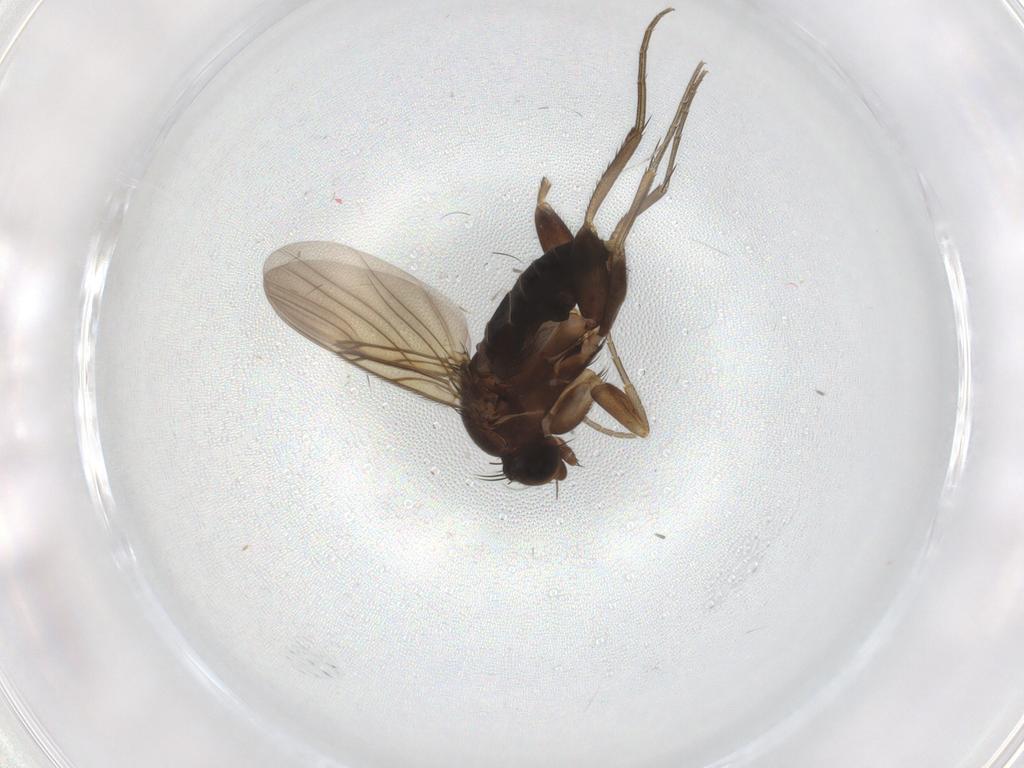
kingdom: Animalia
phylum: Arthropoda
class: Insecta
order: Diptera
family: Phoridae
